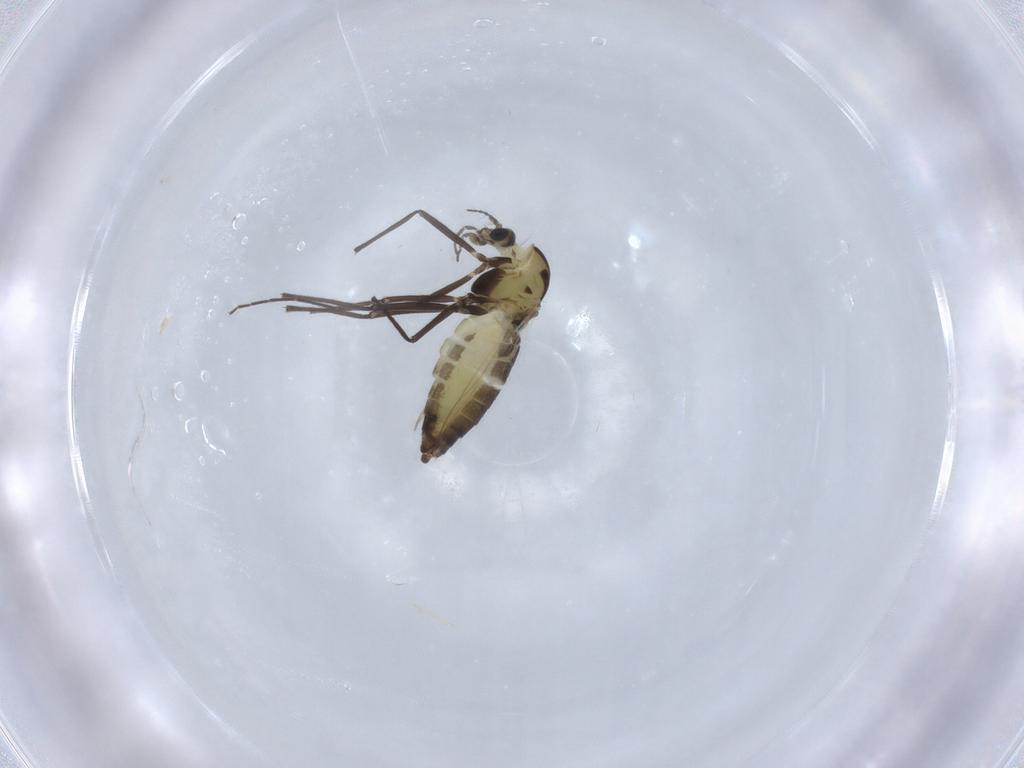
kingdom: Animalia
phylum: Arthropoda
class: Insecta
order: Diptera
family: Chironomidae
